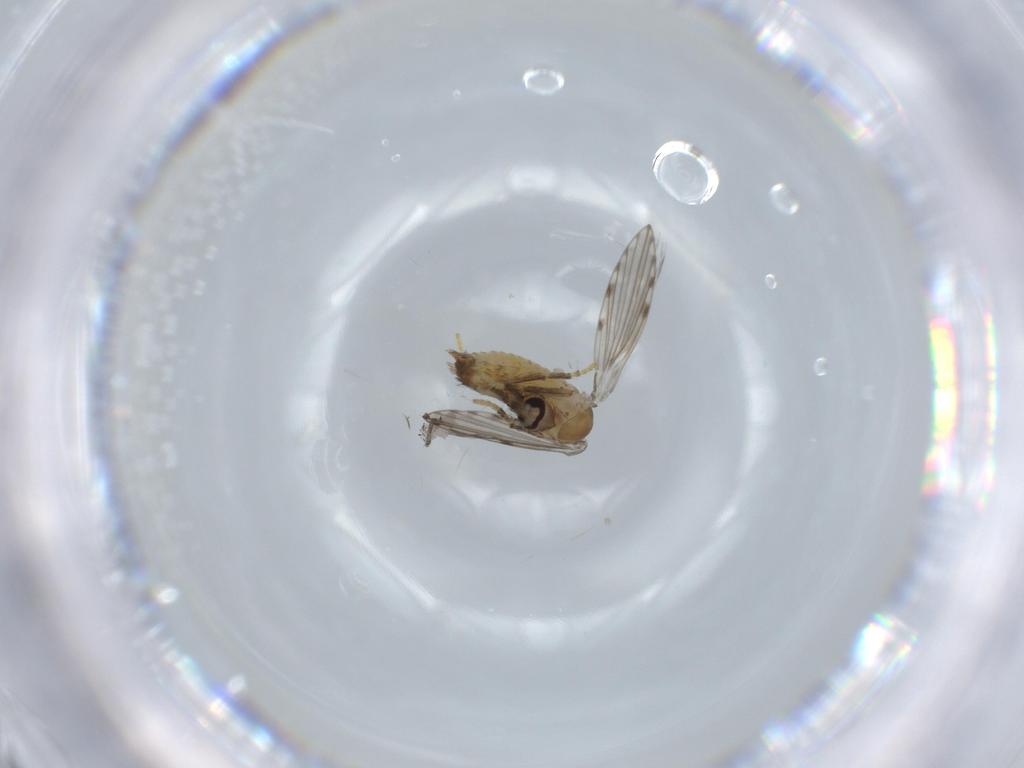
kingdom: Animalia
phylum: Arthropoda
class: Insecta
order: Diptera
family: Psychodidae
